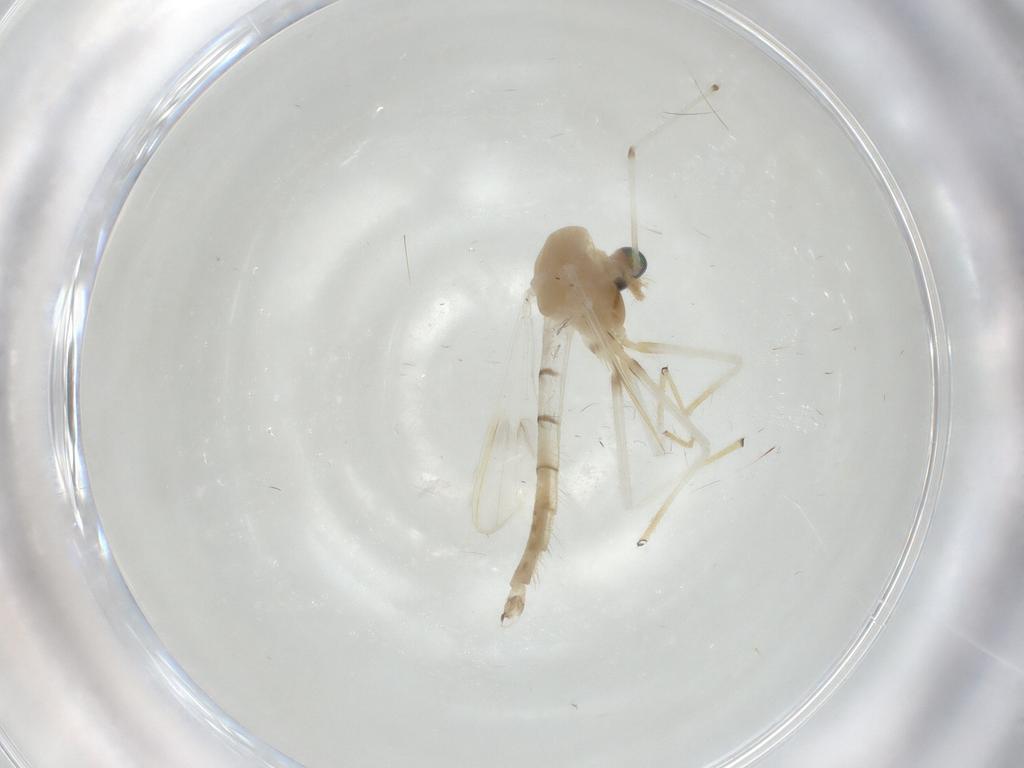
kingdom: Animalia
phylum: Arthropoda
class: Insecta
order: Diptera
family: Chironomidae
